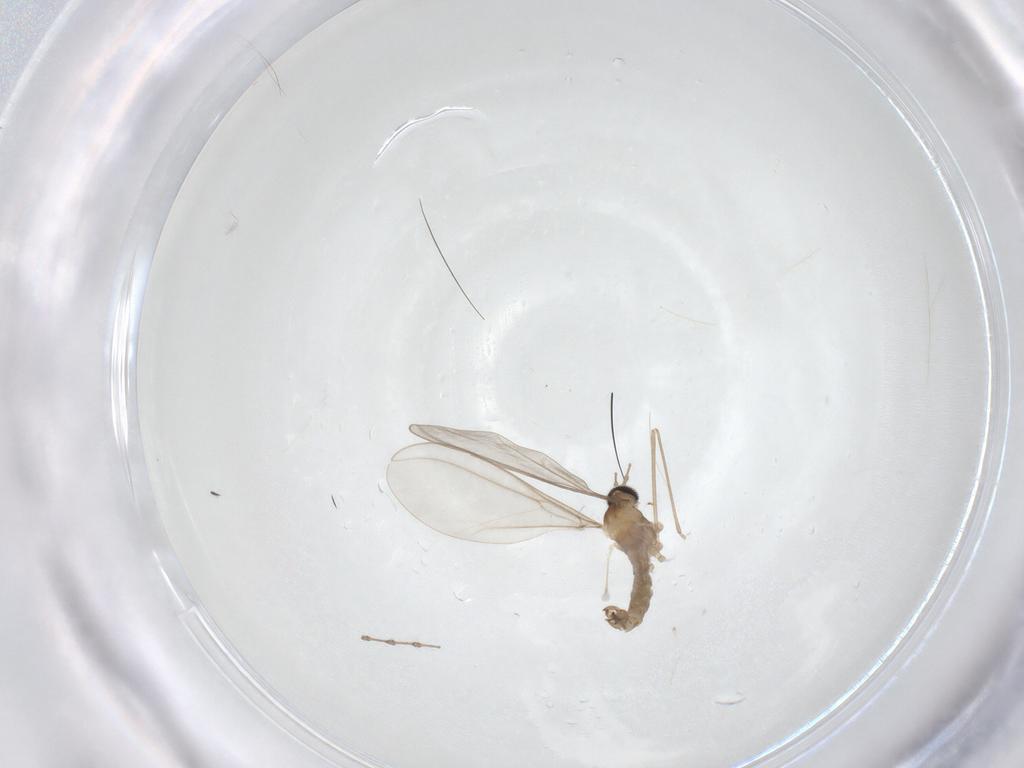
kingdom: Animalia
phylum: Arthropoda
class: Insecta
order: Diptera
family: Cecidomyiidae
